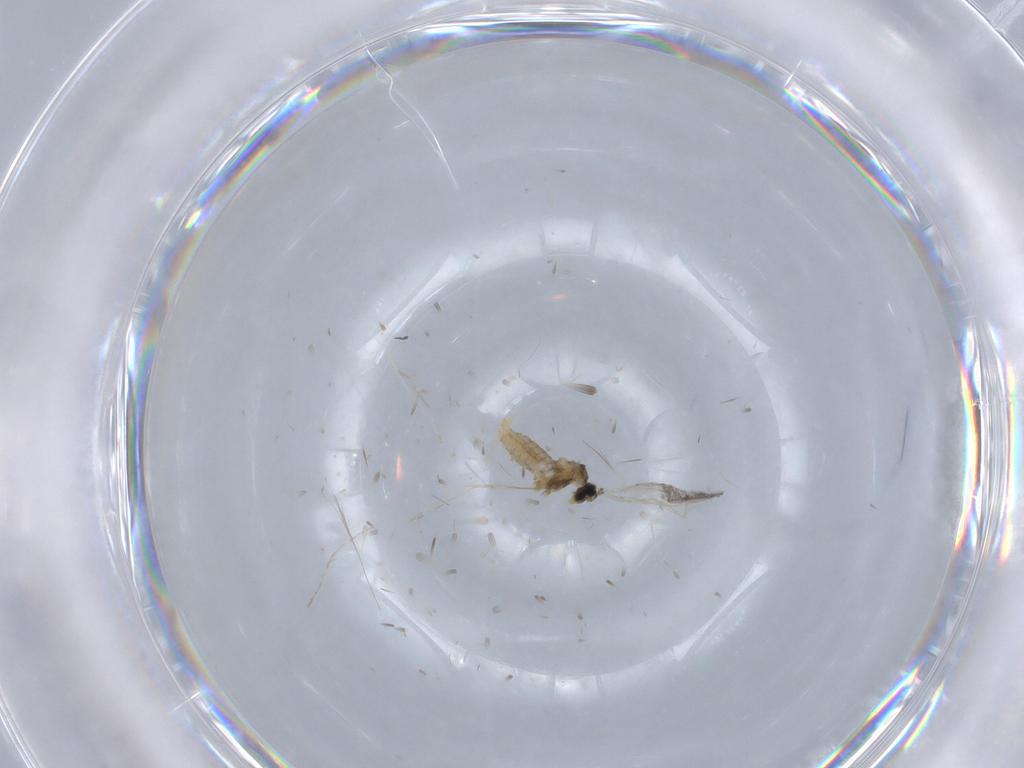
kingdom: Animalia
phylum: Arthropoda
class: Insecta
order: Diptera
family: Cecidomyiidae
